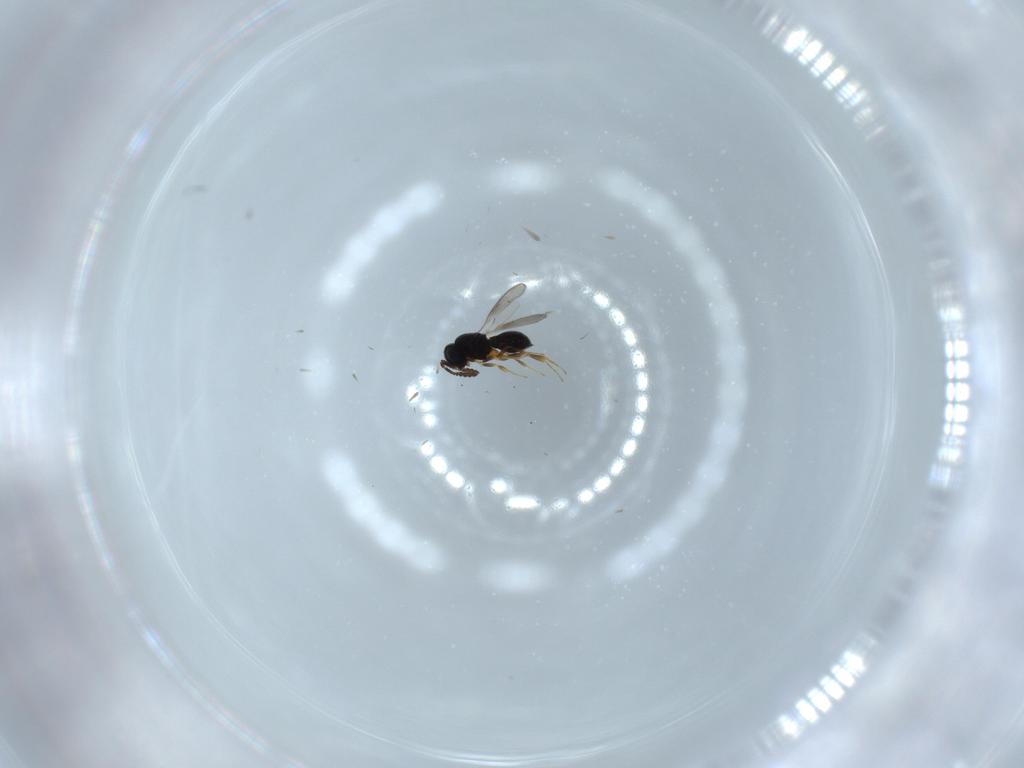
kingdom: Animalia
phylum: Arthropoda
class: Insecta
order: Hymenoptera
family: Scelionidae
